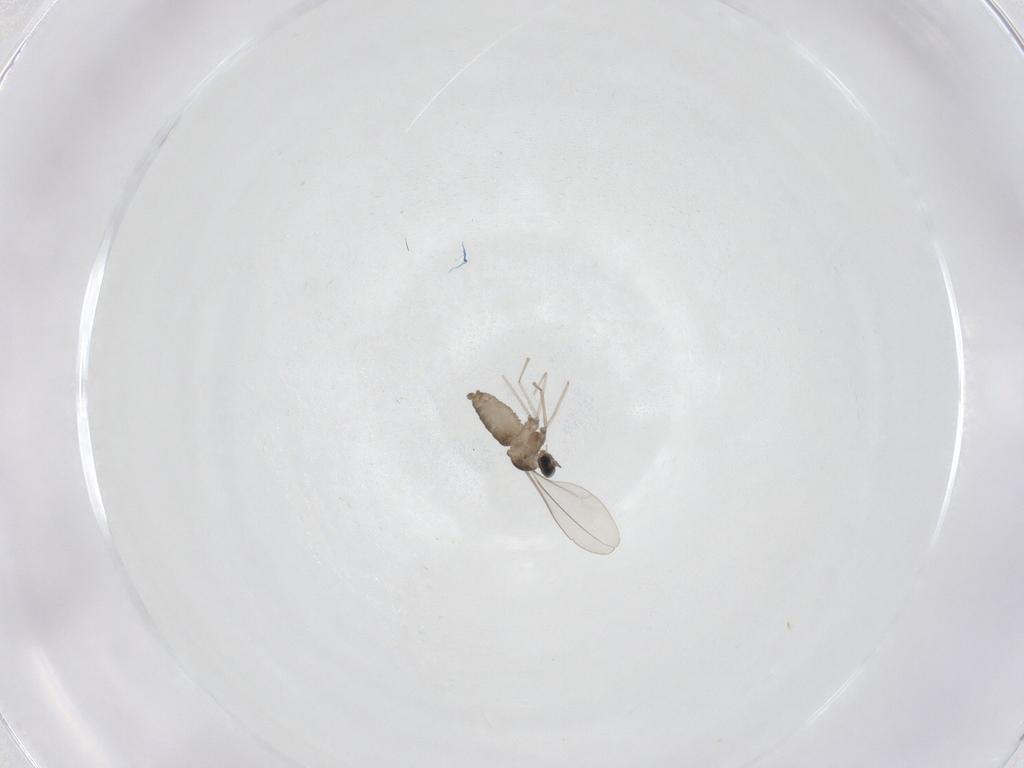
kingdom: Animalia
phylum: Arthropoda
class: Insecta
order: Diptera
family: Cecidomyiidae
